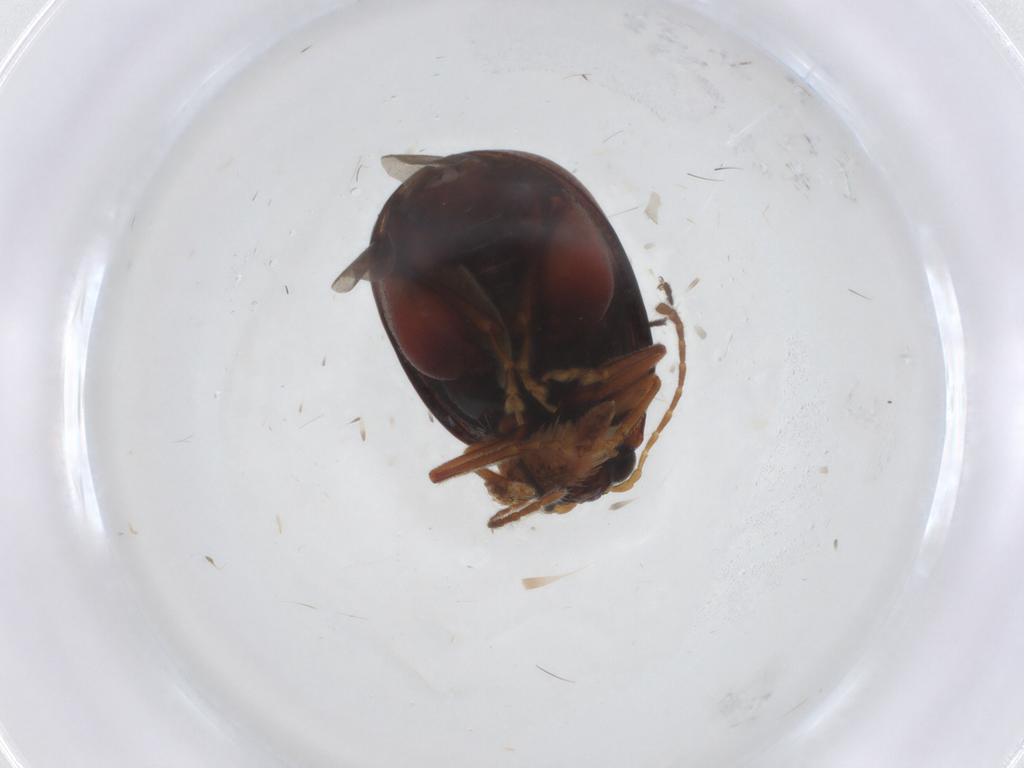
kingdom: Animalia
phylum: Arthropoda
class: Insecta
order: Coleoptera
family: Chrysomelidae
